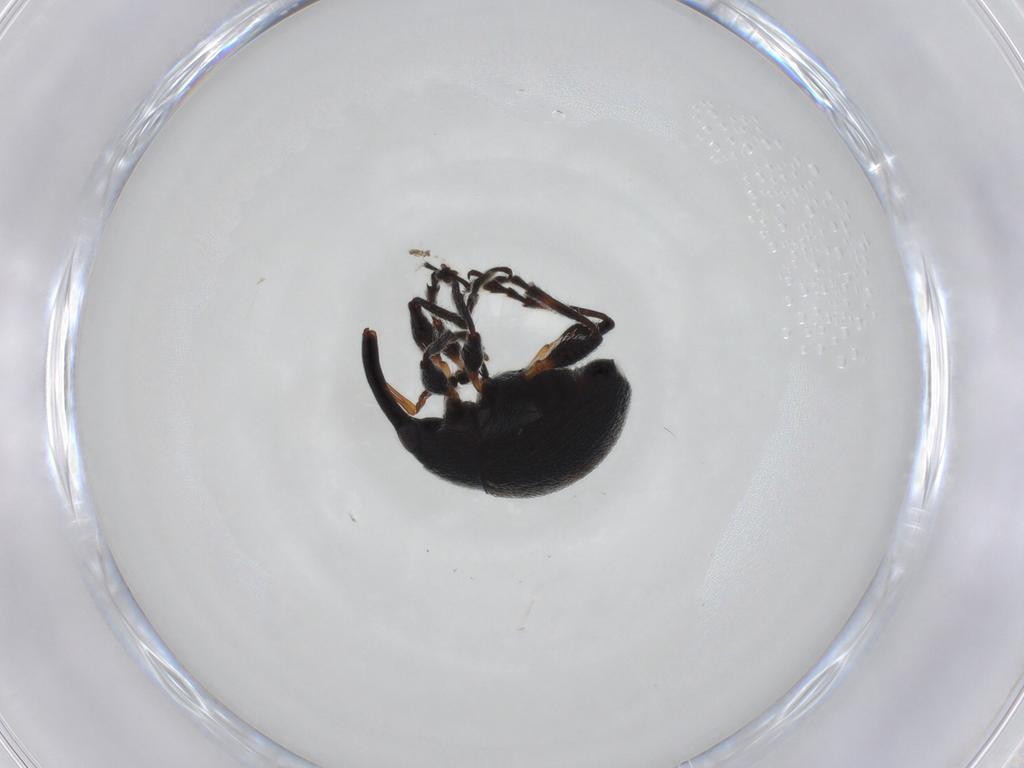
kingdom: Animalia
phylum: Arthropoda
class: Insecta
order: Coleoptera
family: Brentidae
